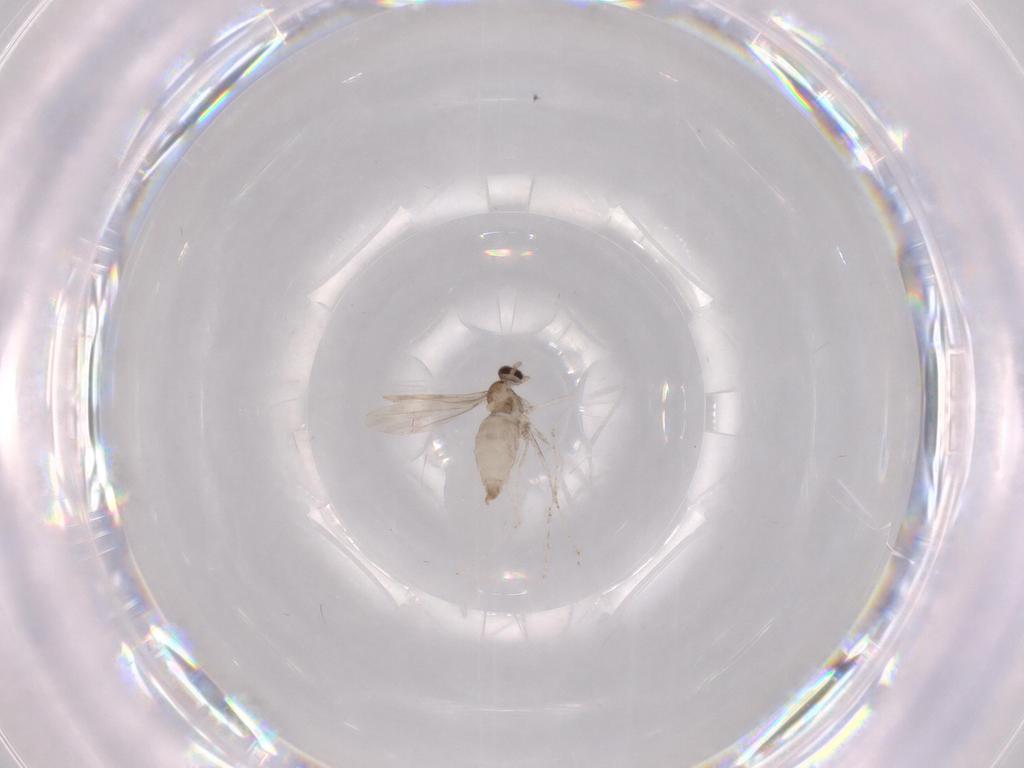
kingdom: Animalia
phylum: Arthropoda
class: Insecta
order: Diptera
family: Cecidomyiidae
